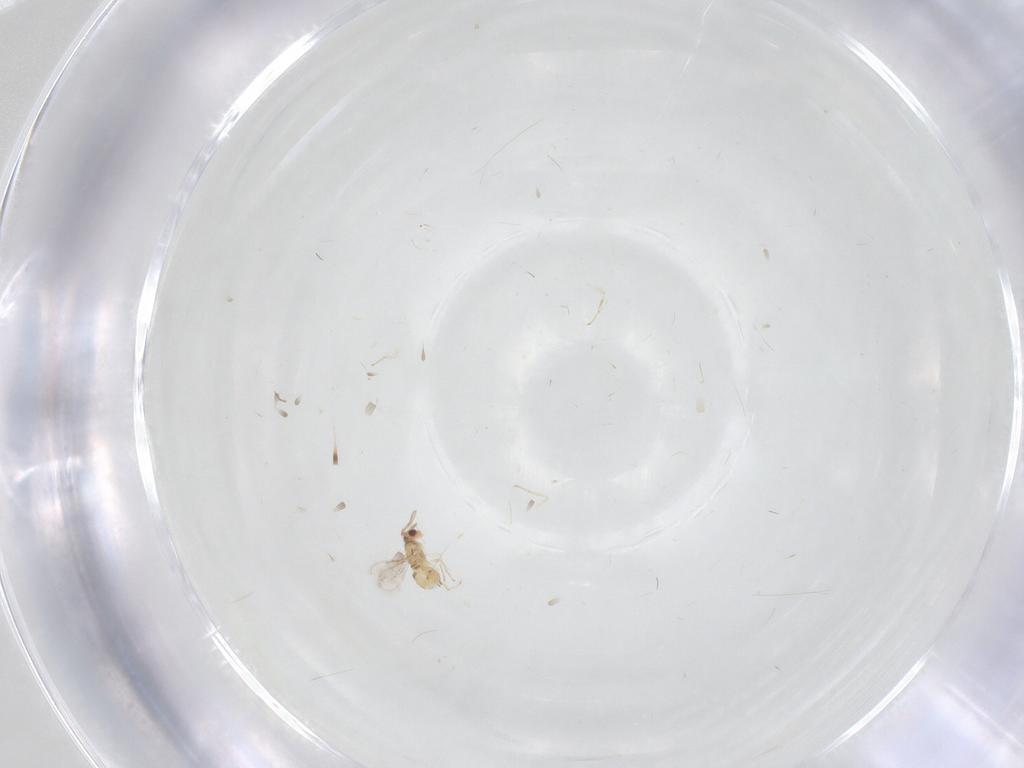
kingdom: Animalia
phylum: Arthropoda
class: Insecta
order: Hymenoptera
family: Aphelinidae
